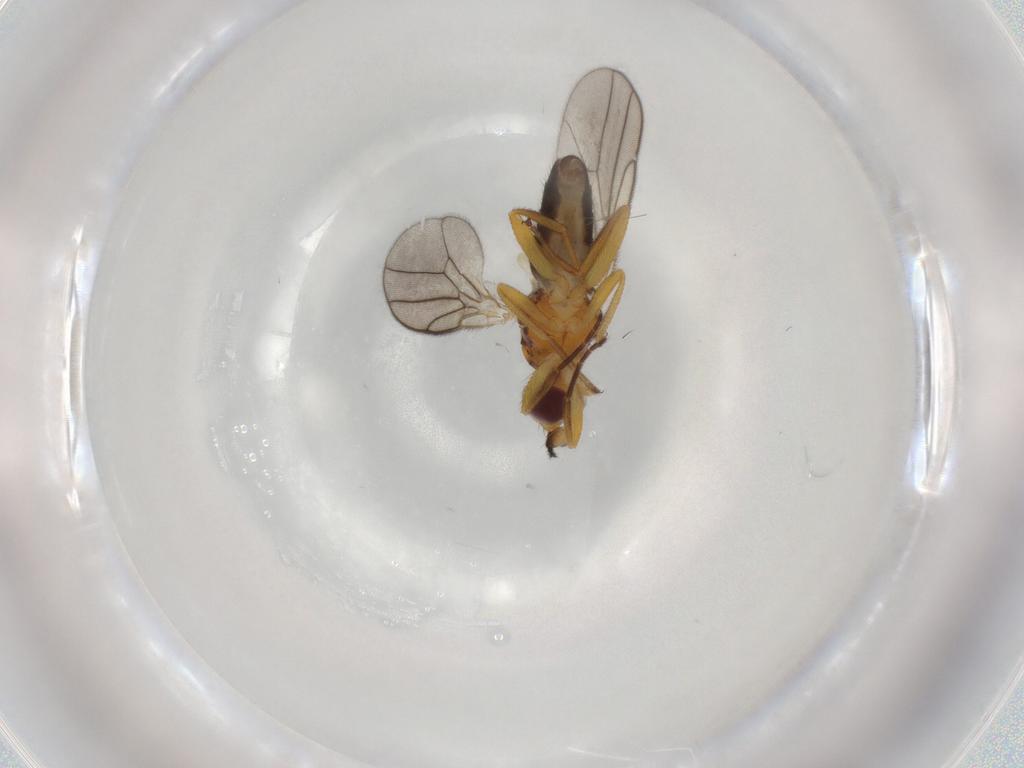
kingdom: Animalia
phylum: Arthropoda
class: Insecta
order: Diptera
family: Chloropidae
